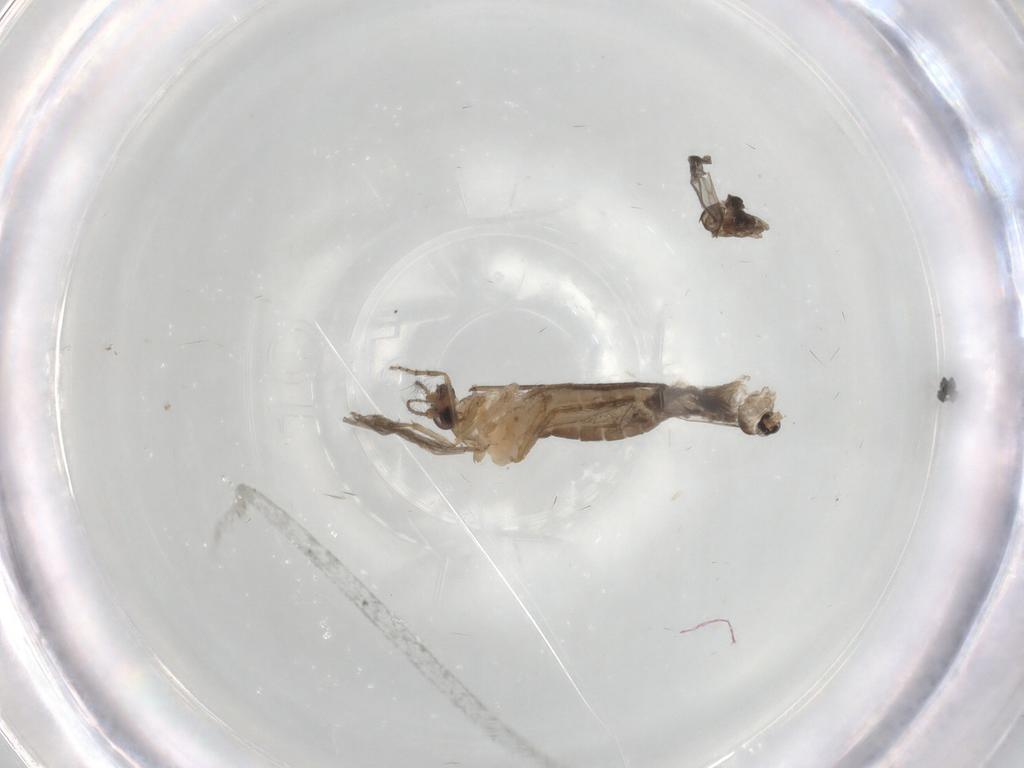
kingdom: Animalia
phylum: Arthropoda
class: Insecta
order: Diptera
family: Ceratopogonidae
